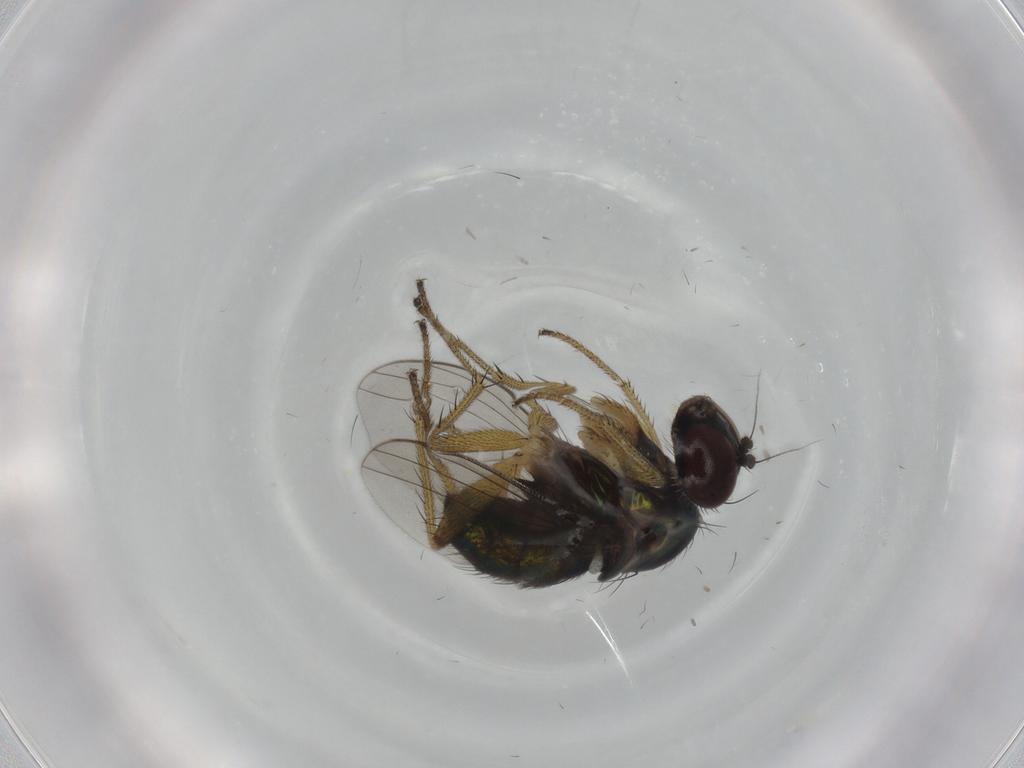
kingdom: Animalia
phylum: Arthropoda
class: Insecta
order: Diptera
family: Dolichopodidae
